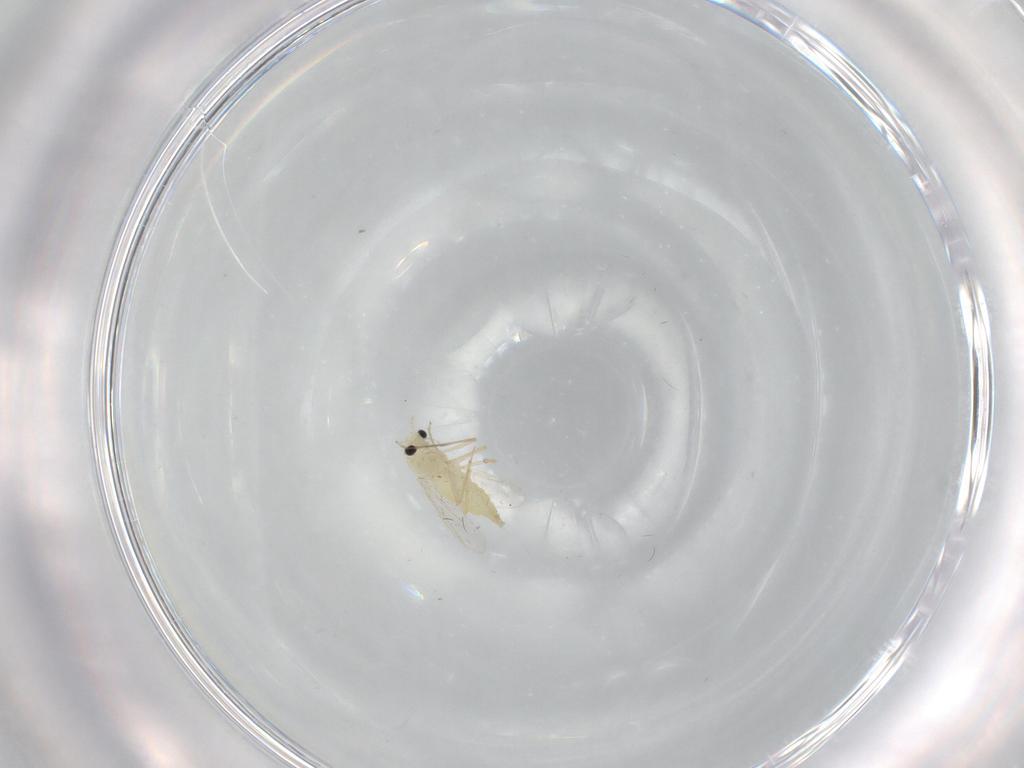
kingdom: Animalia
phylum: Arthropoda
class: Insecta
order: Diptera
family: Chironomidae
